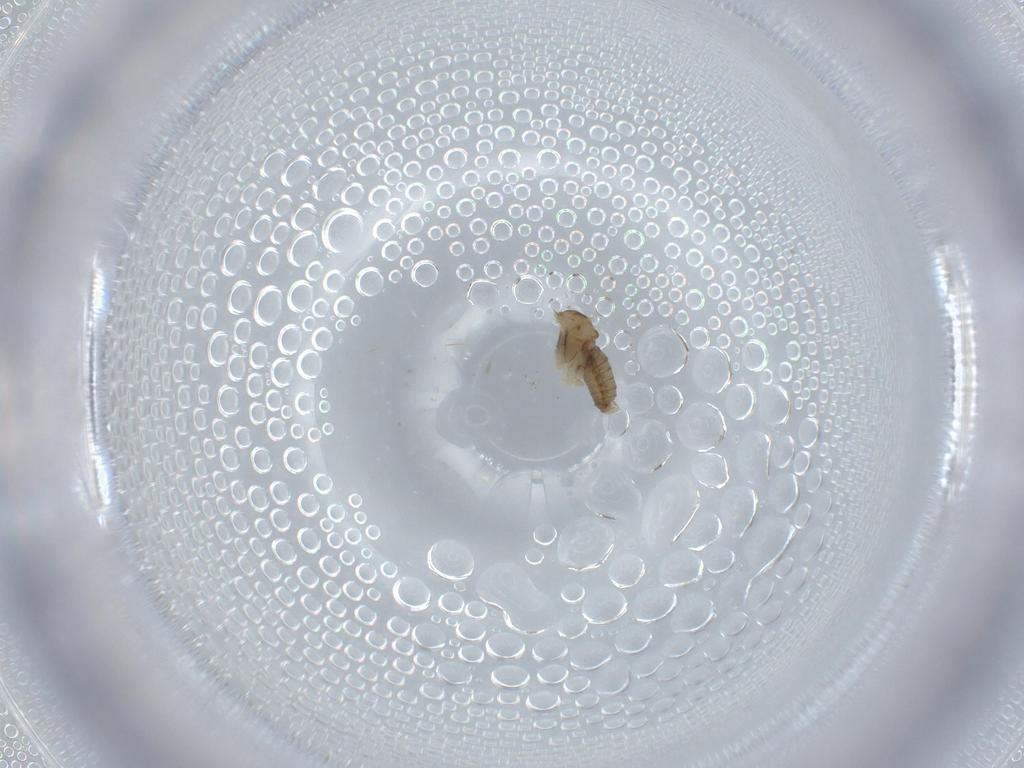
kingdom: Animalia
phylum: Arthropoda
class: Insecta
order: Diptera
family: Cecidomyiidae
